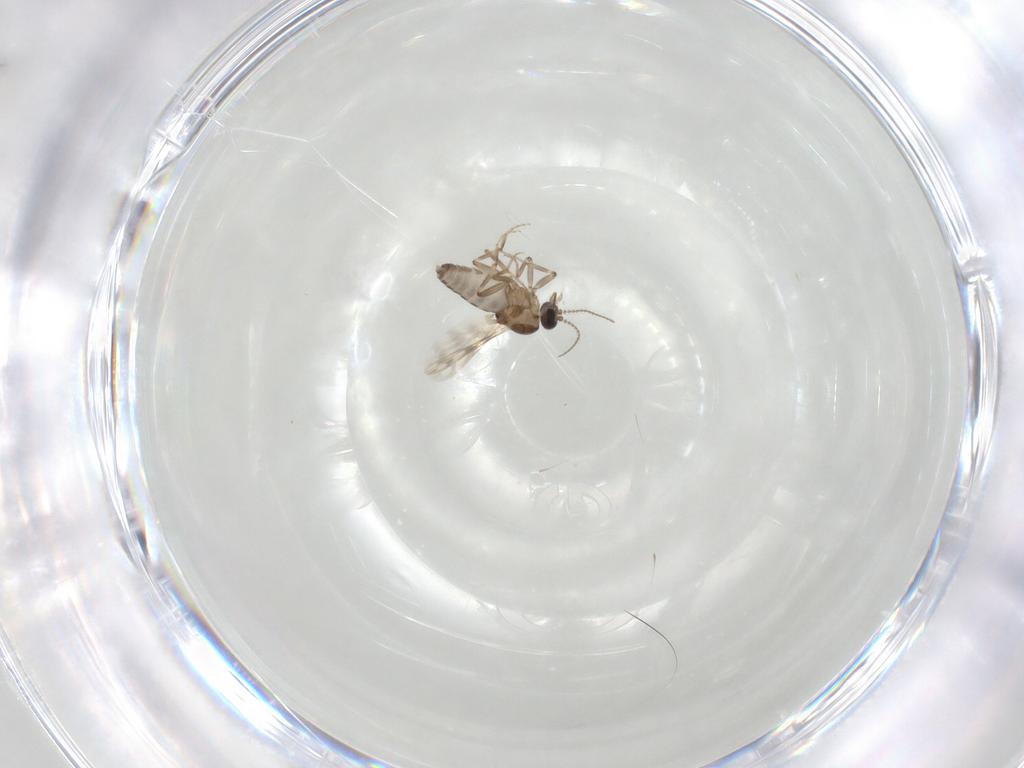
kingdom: Animalia
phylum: Arthropoda
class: Insecta
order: Diptera
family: Ceratopogonidae
